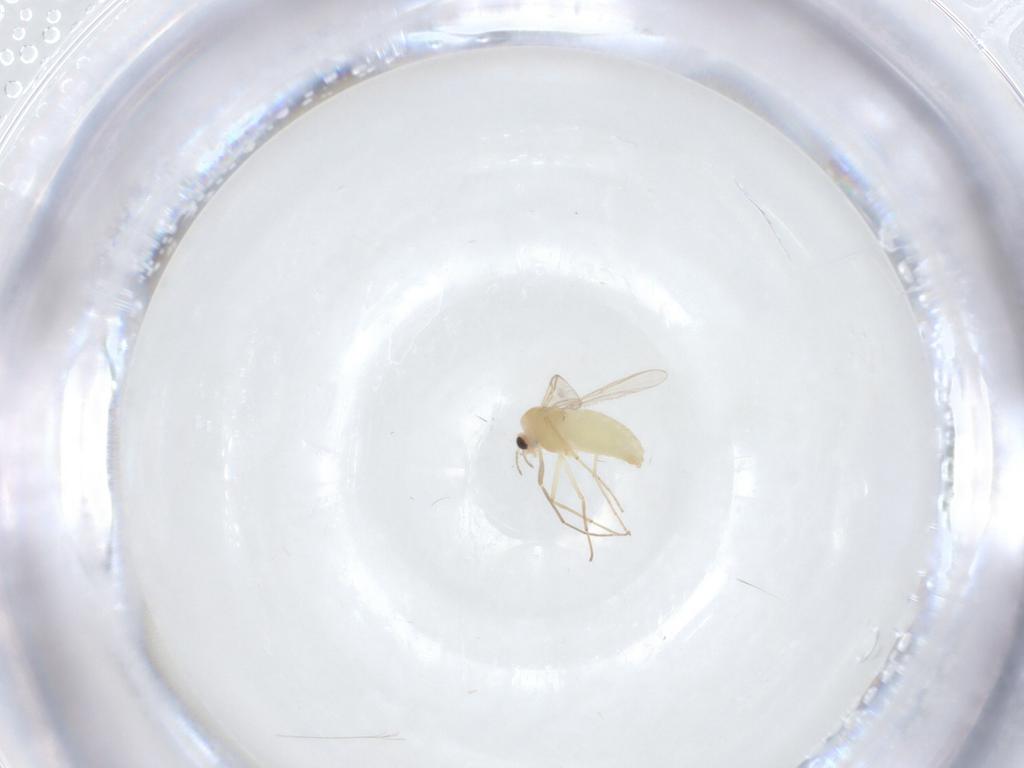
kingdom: Animalia
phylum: Arthropoda
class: Insecta
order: Diptera
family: Chironomidae
